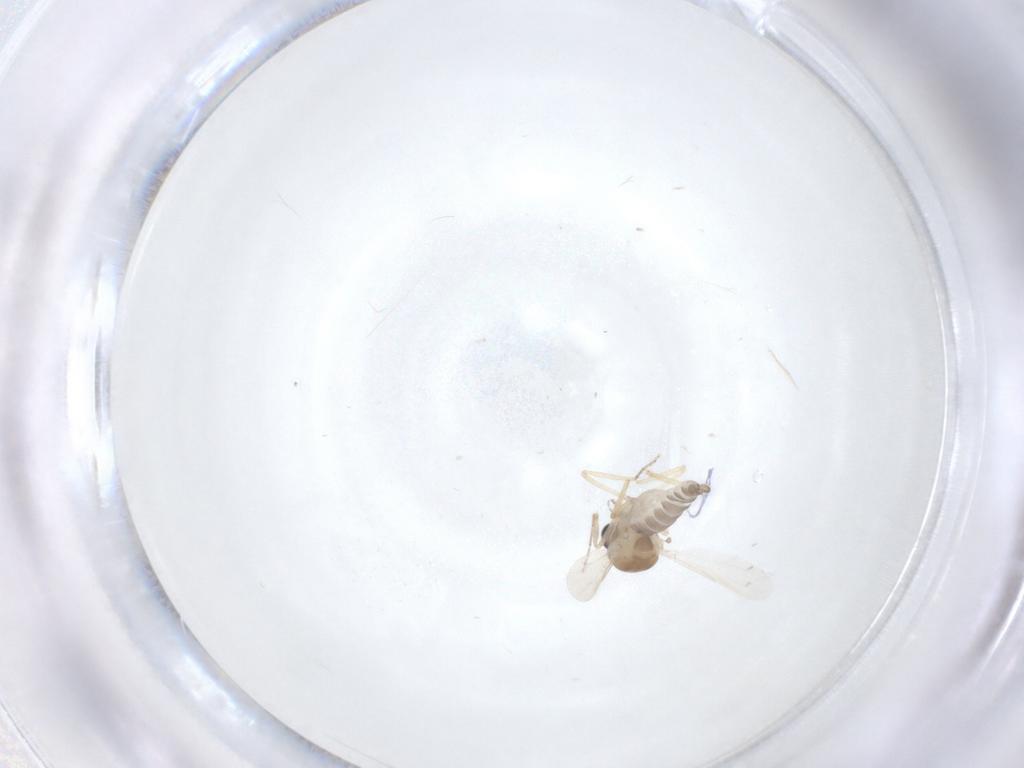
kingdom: Animalia
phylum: Arthropoda
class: Insecta
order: Diptera
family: Ceratopogonidae
